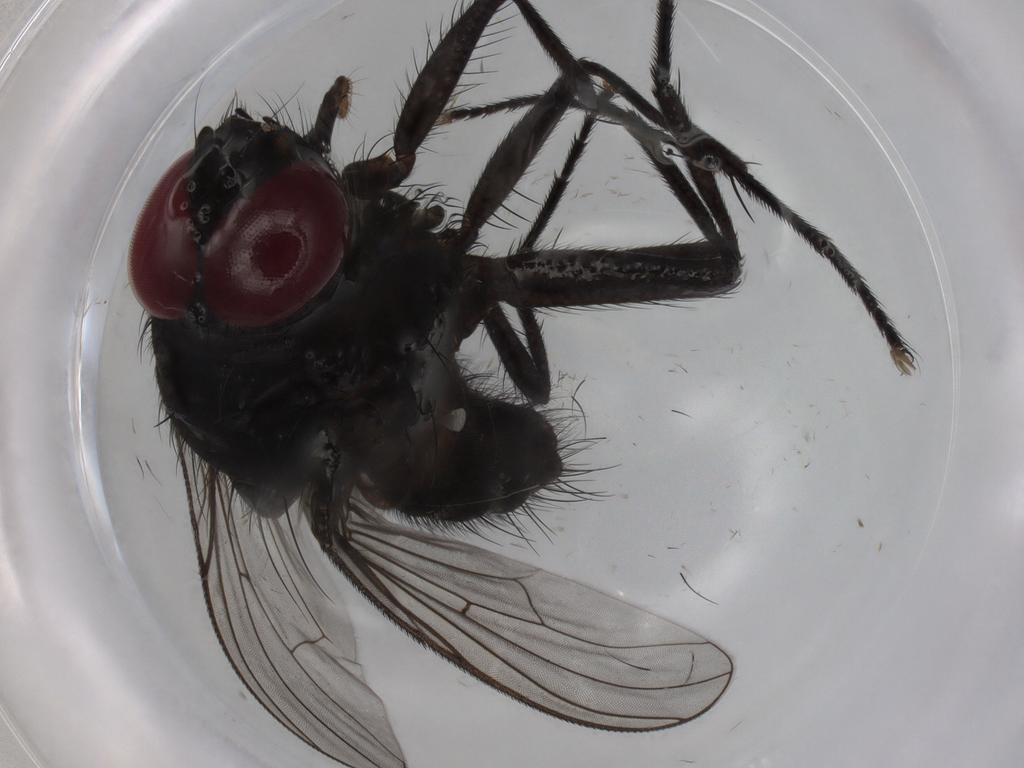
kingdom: Animalia
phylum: Arthropoda
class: Insecta
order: Diptera
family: Muscidae
